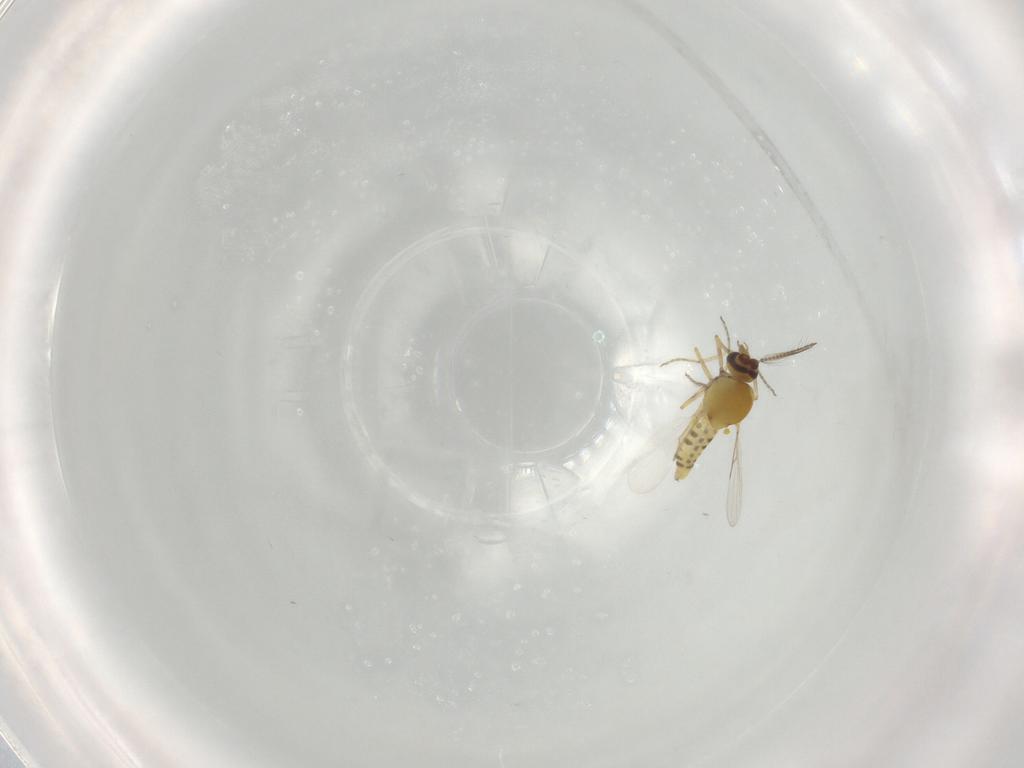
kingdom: Animalia
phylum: Arthropoda
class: Insecta
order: Diptera
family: Ceratopogonidae
